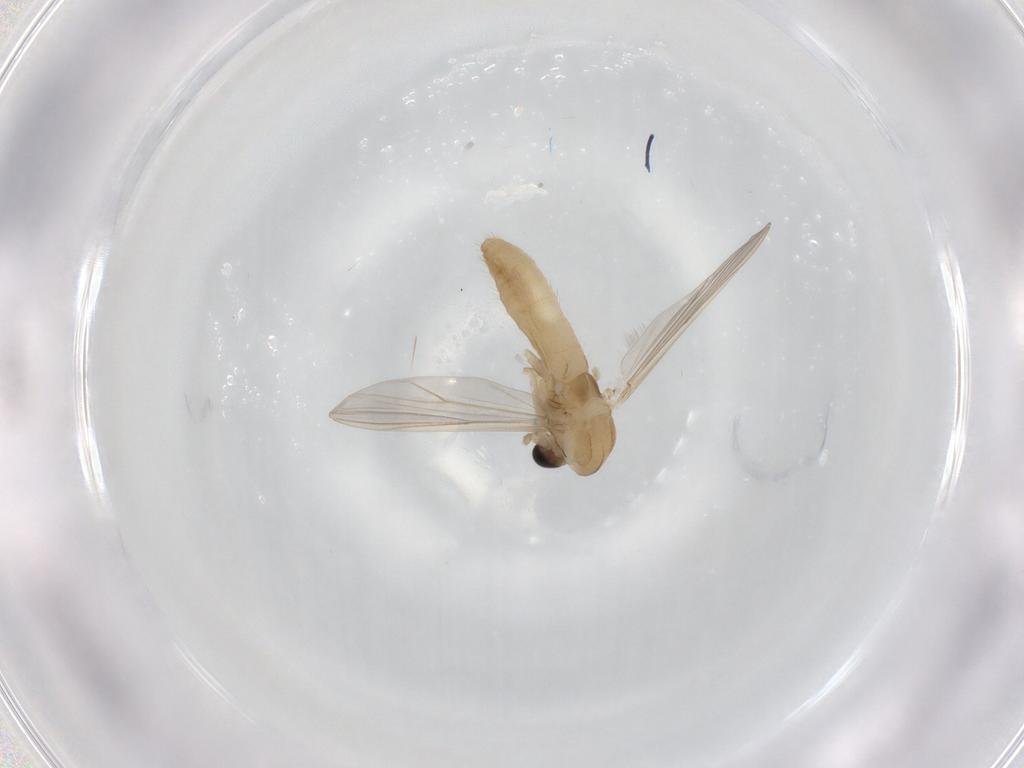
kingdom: Animalia
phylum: Arthropoda
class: Insecta
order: Diptera
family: Chironomidae
